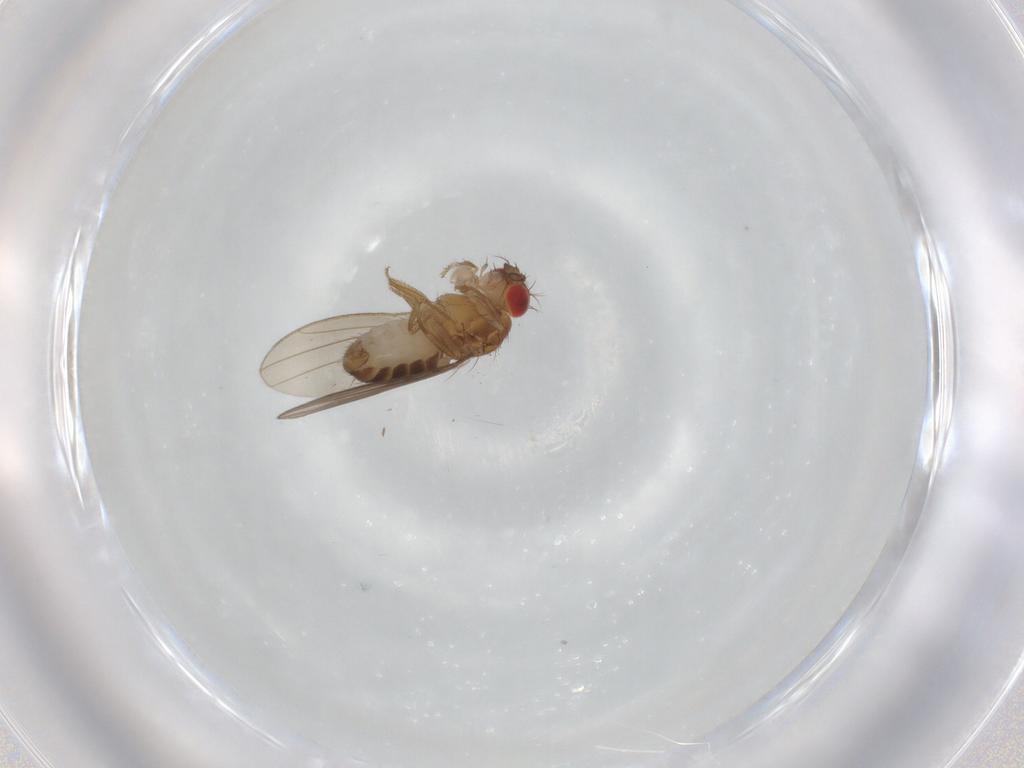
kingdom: Animalia
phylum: Arthropoda
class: Insecta
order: Diptera
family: Drosophilidae
